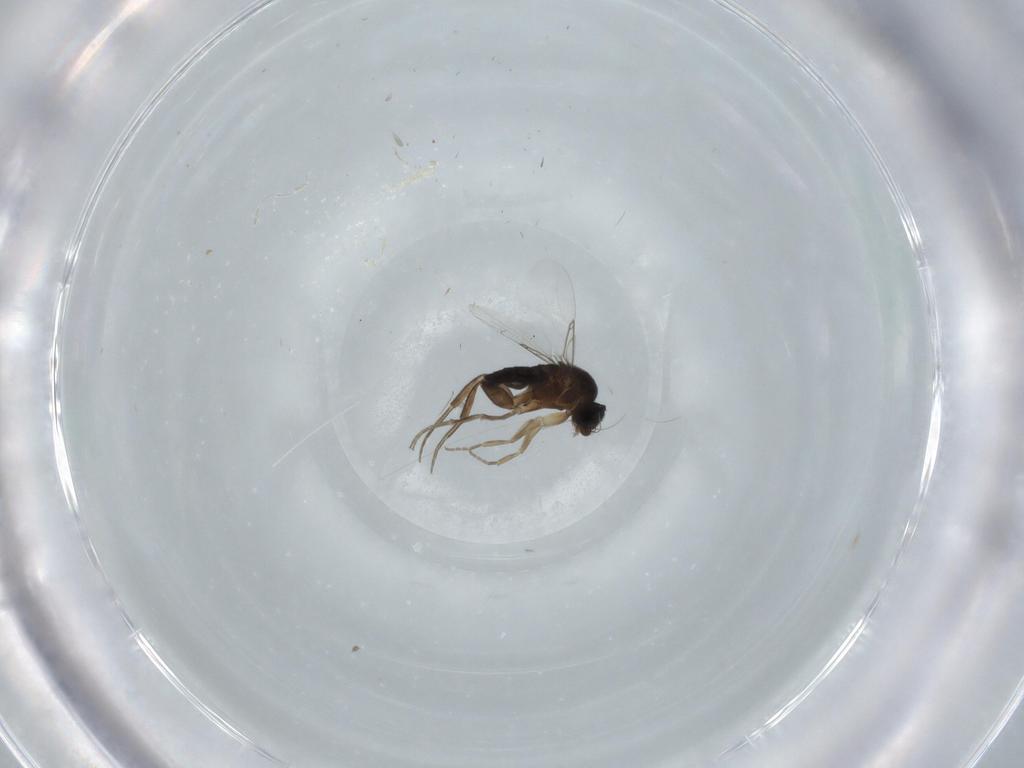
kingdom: Animalia
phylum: Arthropoda
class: Insecta
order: Diptera
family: Phoridae
